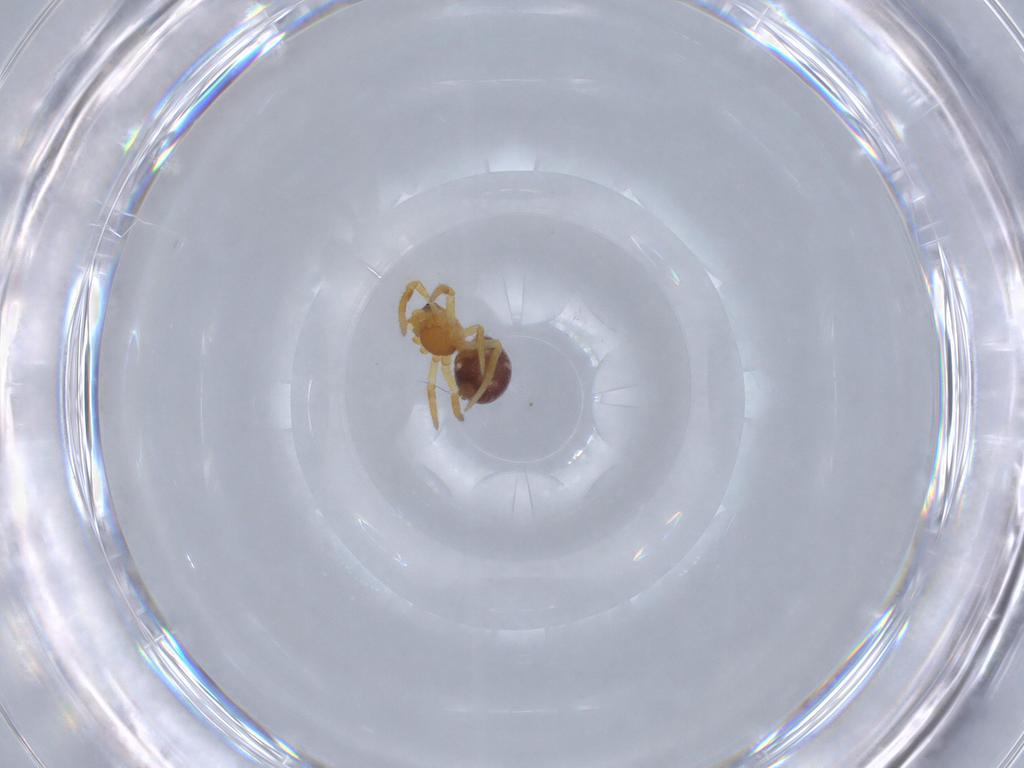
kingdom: Animalia
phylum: Arthropoda
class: Arachnida
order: Araneae
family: Theridiidae
